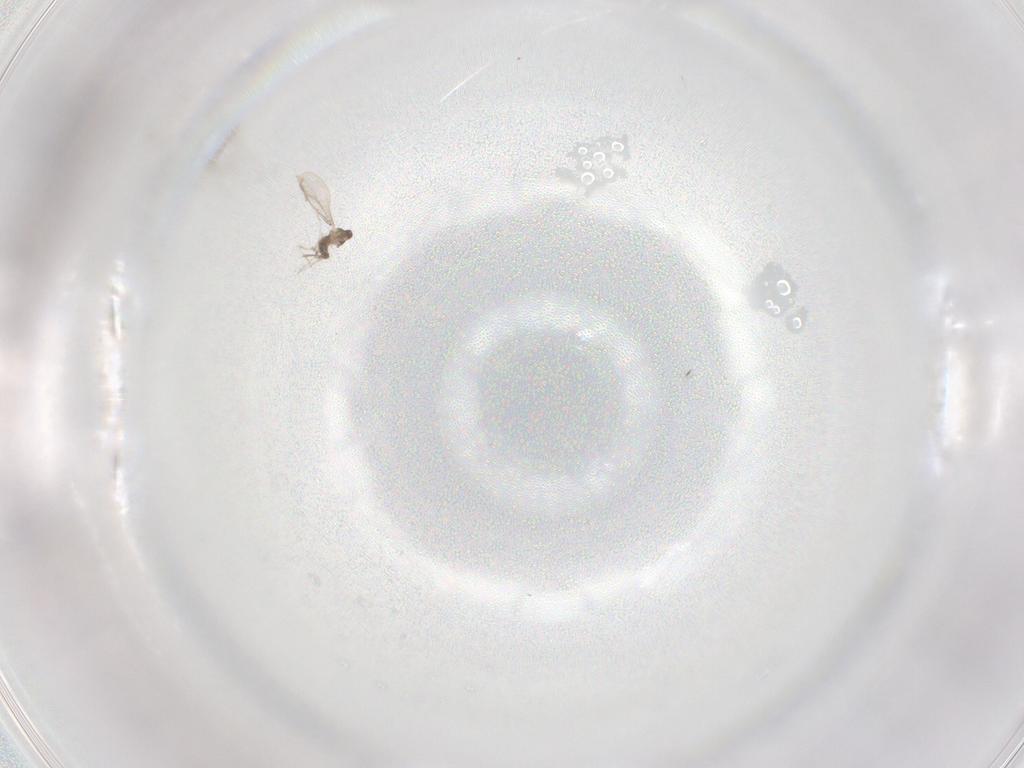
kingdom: Animalia
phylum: Arthropoda
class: Insecta
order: Diptera
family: Cecidomyiidae
